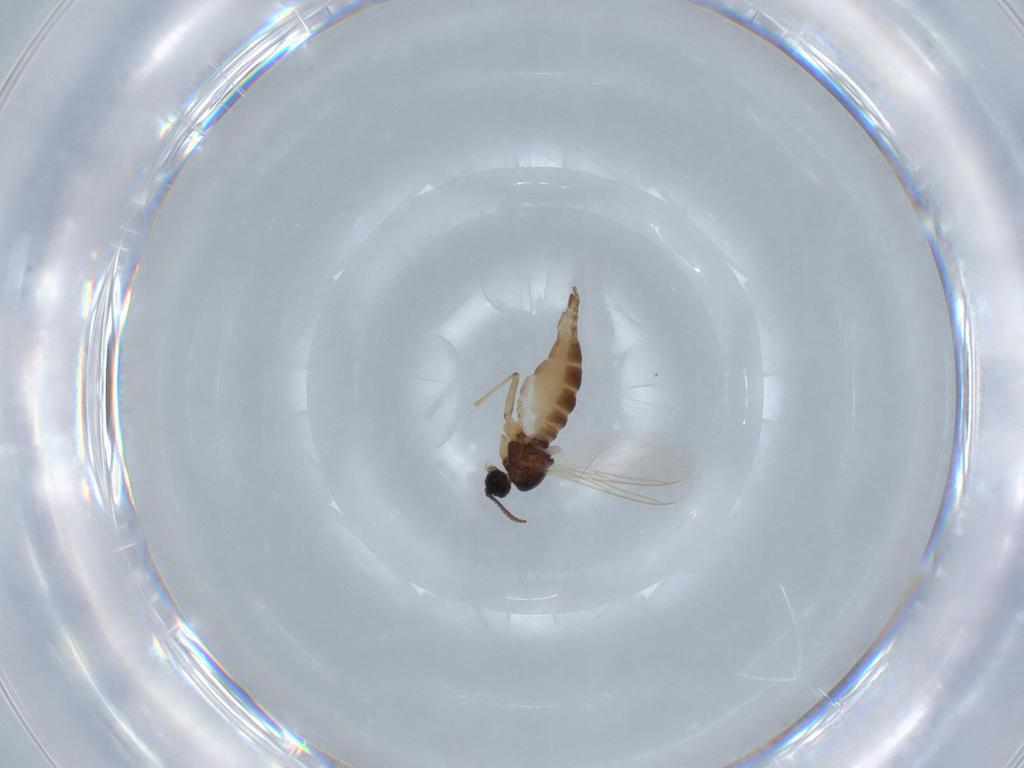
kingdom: Animalia
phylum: Arthropoda
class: Insecta
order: Diptera
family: Sciaridae
